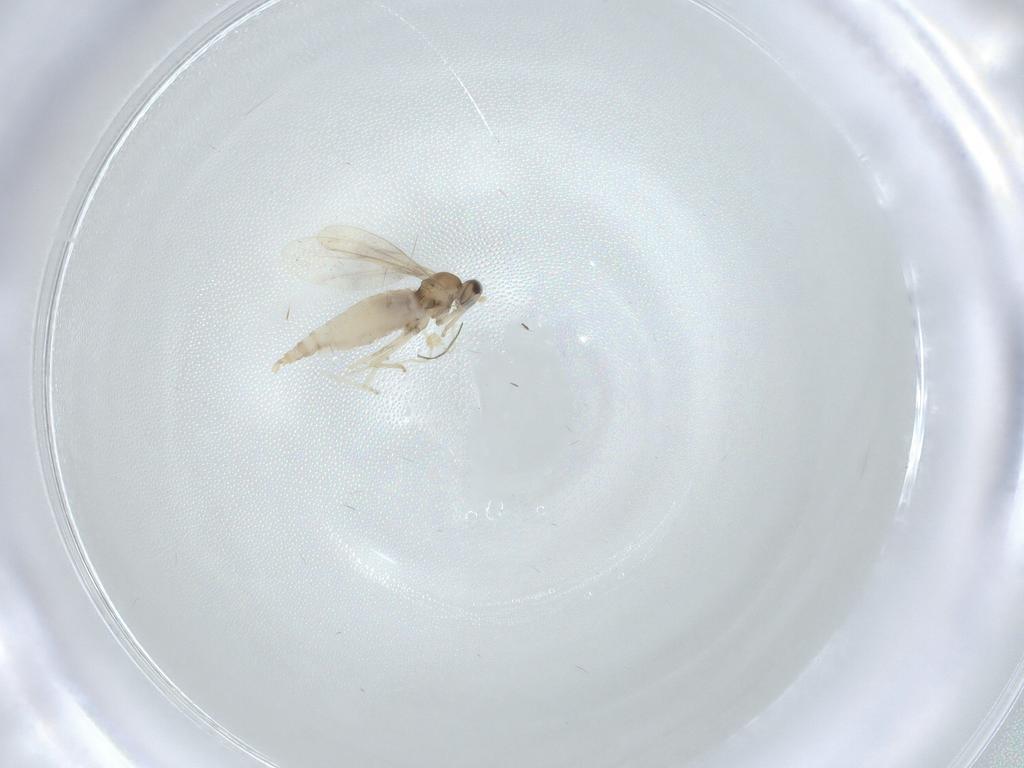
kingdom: Animalia
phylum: Arthropoda
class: Insecta
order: Diptera
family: Cecidomyiidae
